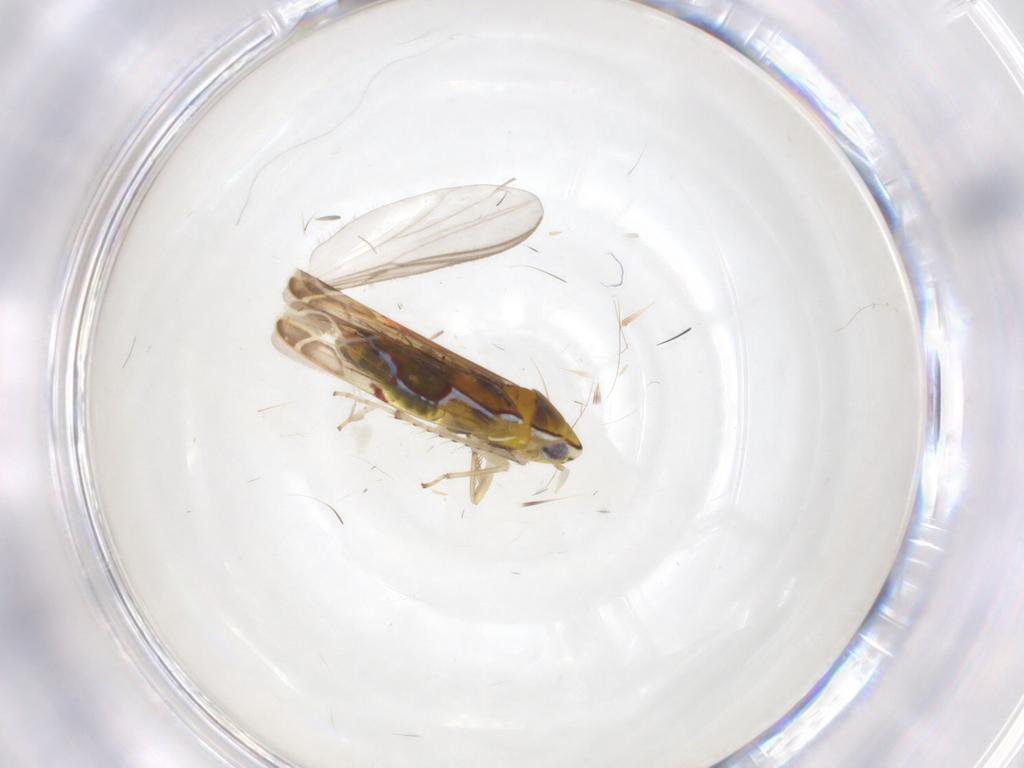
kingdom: Animalia
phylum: Arthropoda
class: Insecta
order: Hemiptera
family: Cicadellidae
